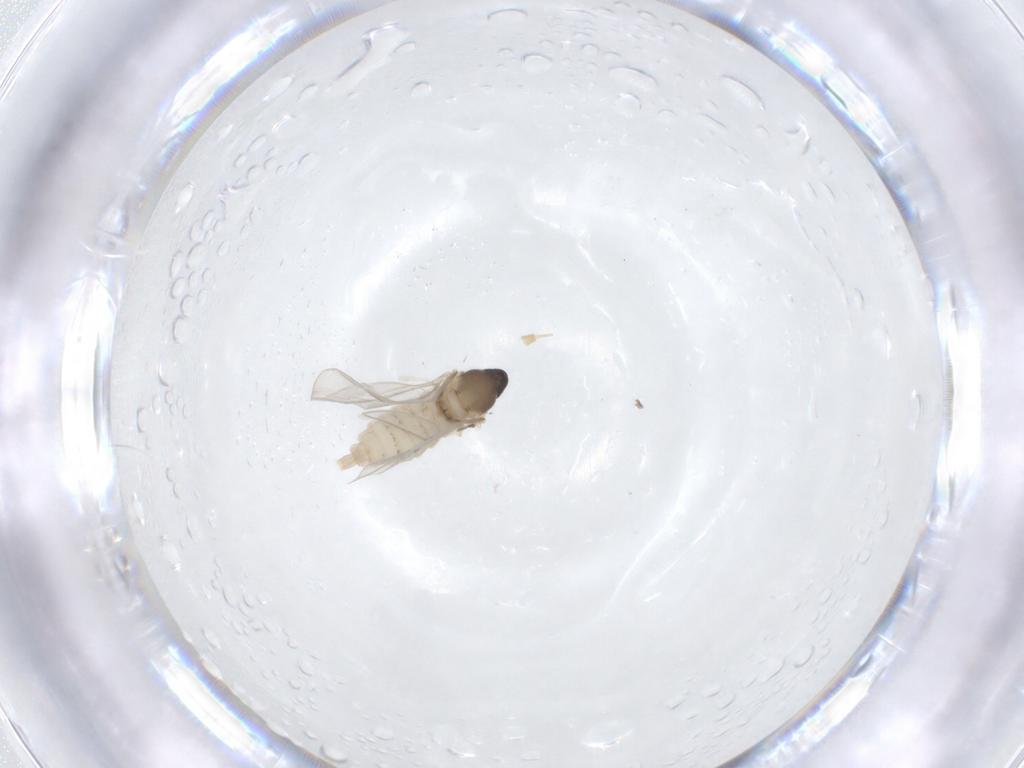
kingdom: Animalia
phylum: Arthropoda
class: Insecta
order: Diptera
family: Cecidomyiidae
